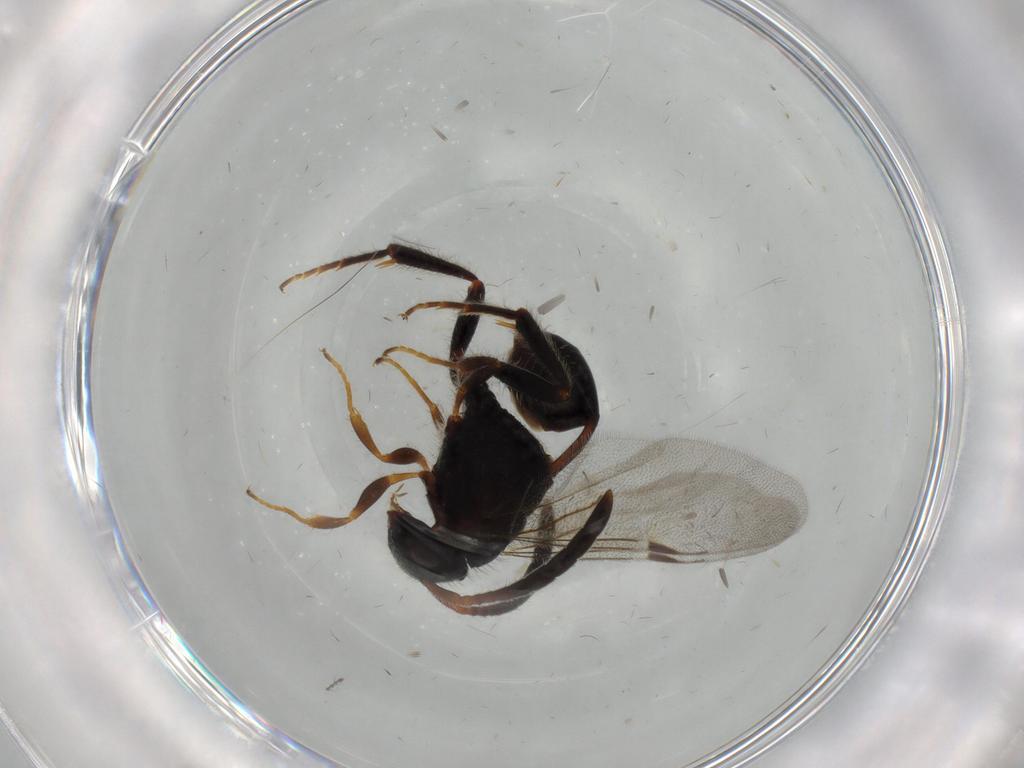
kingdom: Animalia
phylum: Arthropoda
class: Insecta
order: Hymenoptera
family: Evaniidae
